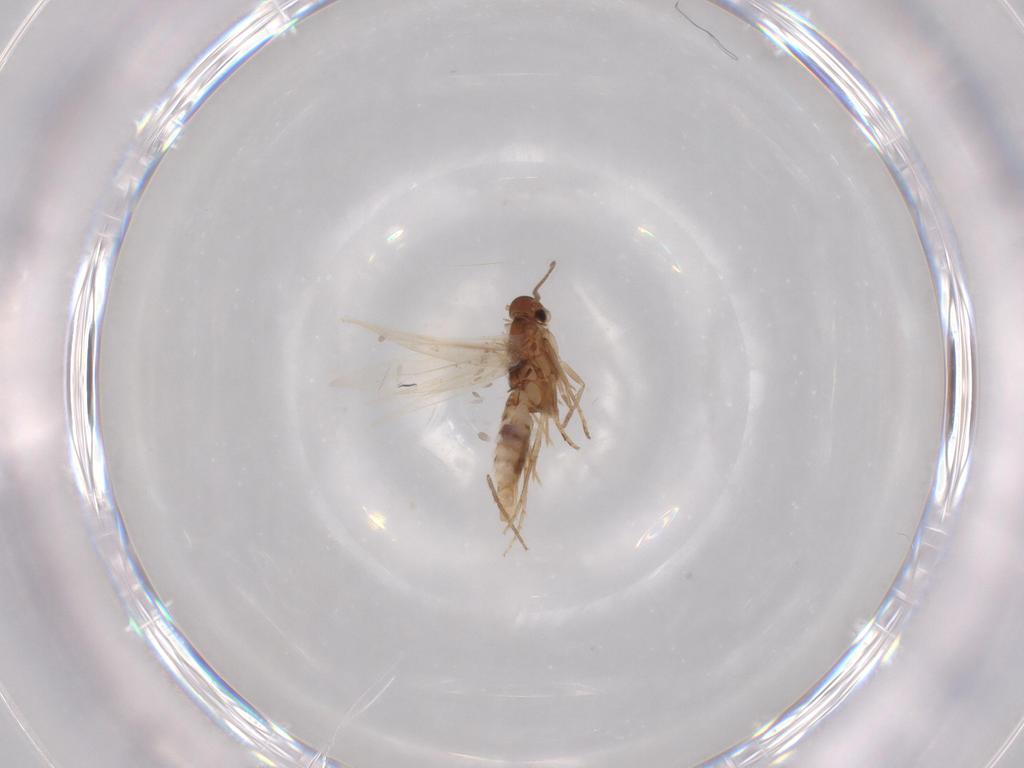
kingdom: Animalia
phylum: Arthropoda
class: Insecta
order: Lepidoptera
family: Elachistidae
